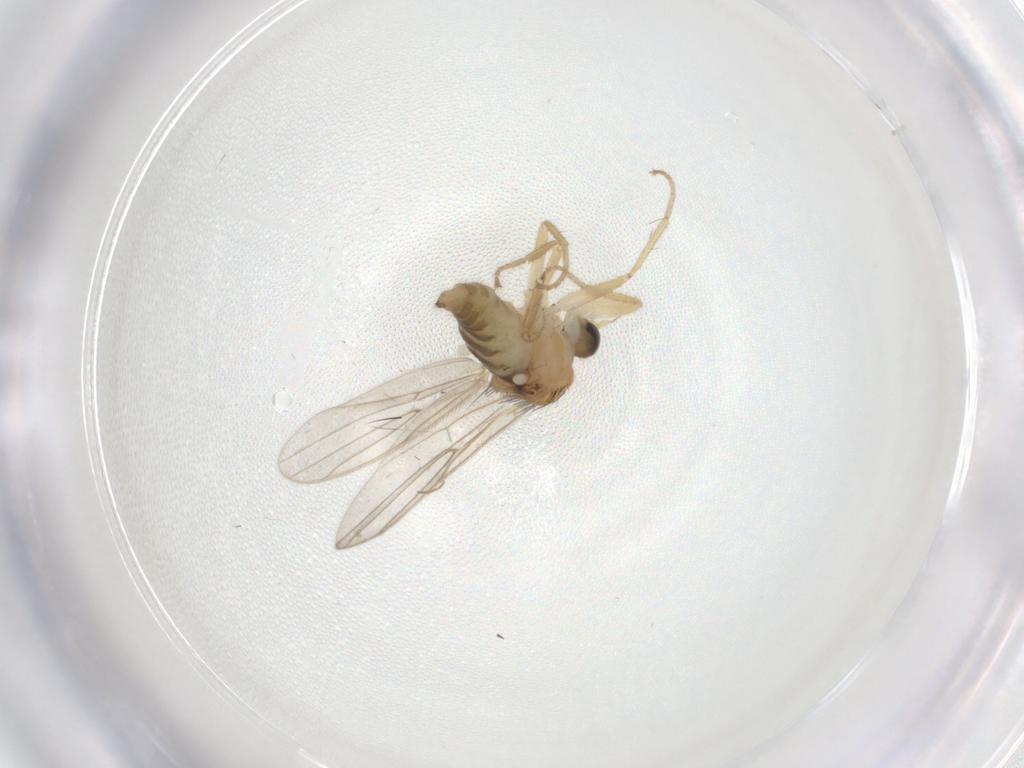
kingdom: Animalia
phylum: Arthropoda
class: Insecta
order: Diptera
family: Hybotidae
